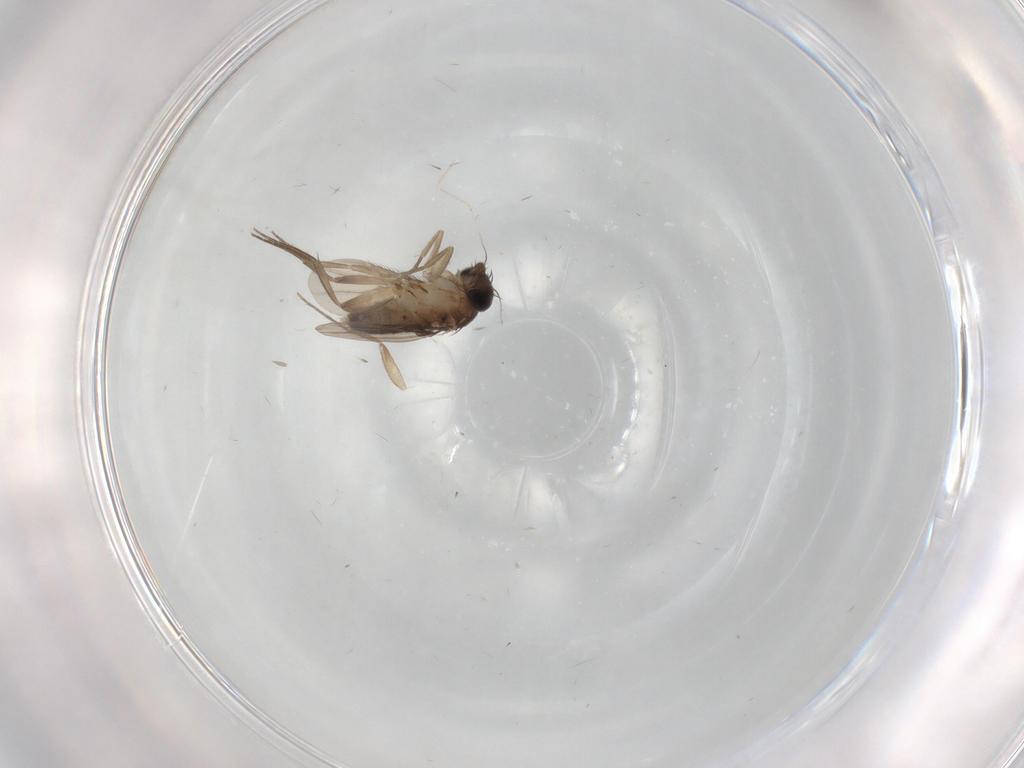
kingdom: Animalia
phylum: Arthropoda
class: Insecta
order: Diptera
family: Phoridae
